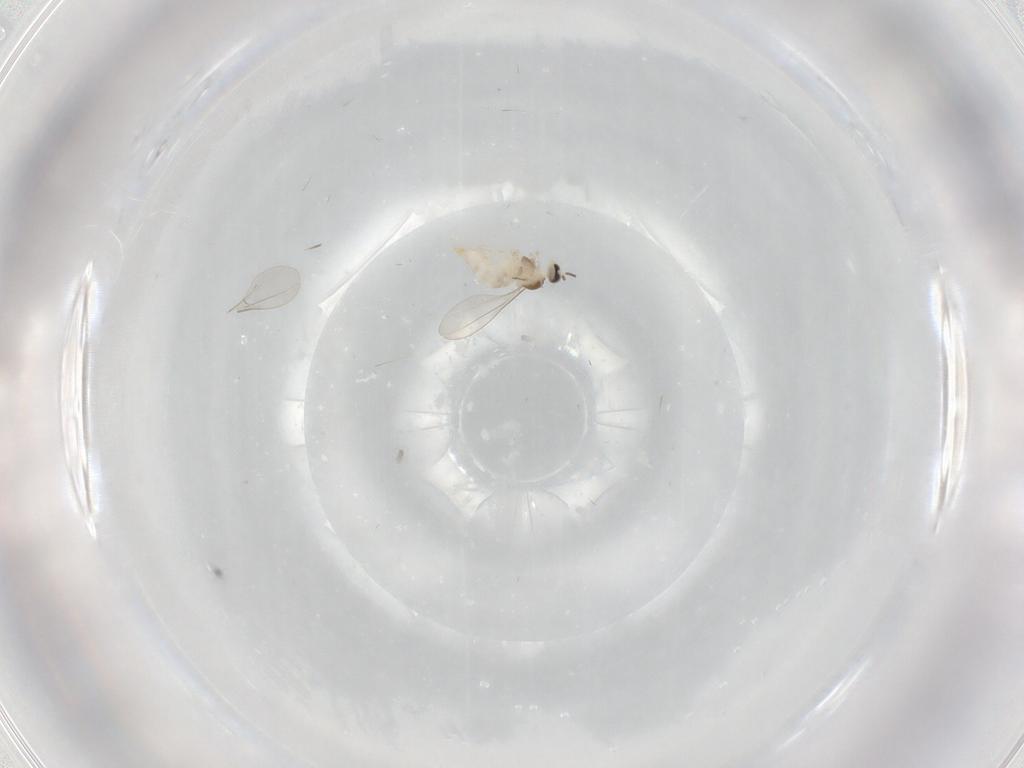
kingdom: Animalia
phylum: Arthropoda
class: Insecta
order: Diptera
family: Cecidomyiidae
